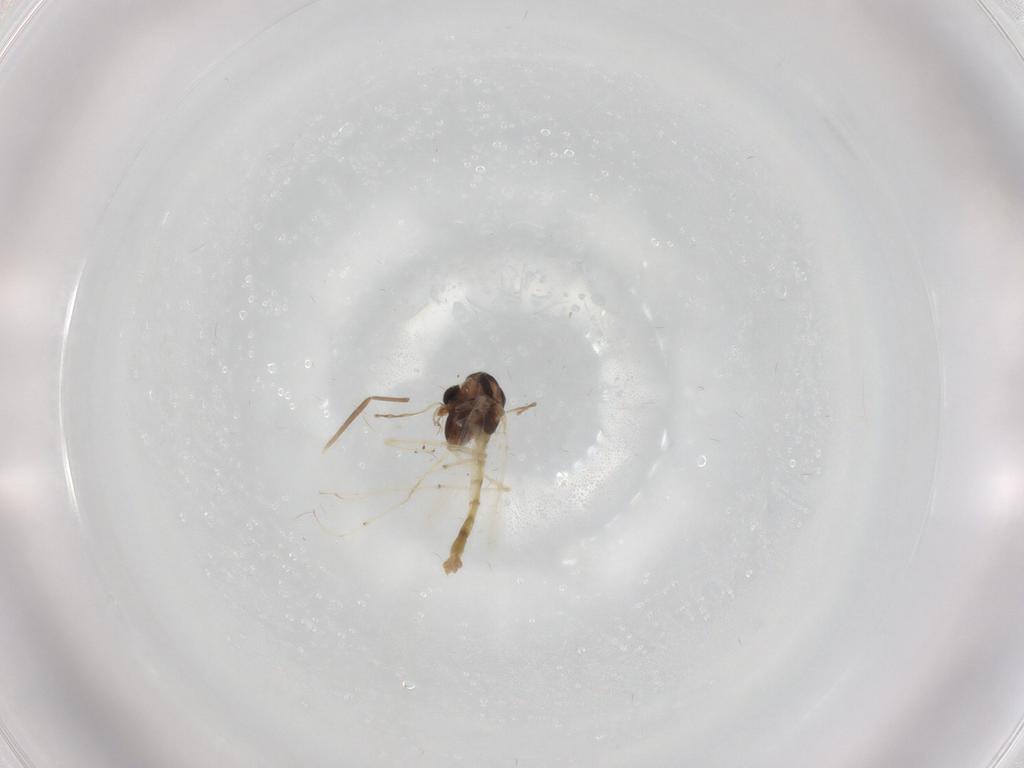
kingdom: Animalia
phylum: Arthropoda
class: Insecta
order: Diptera
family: Chironomidae
